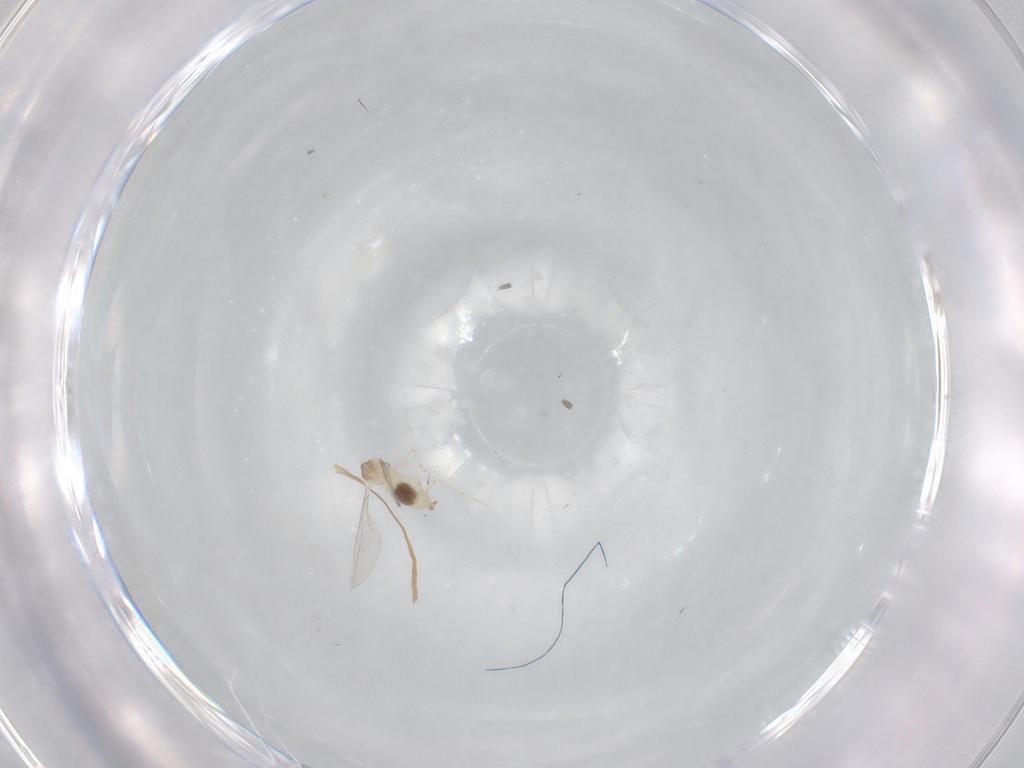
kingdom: Animalia
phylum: Arthropoda
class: Insecta
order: Diptera
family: Cecidomyiidae
